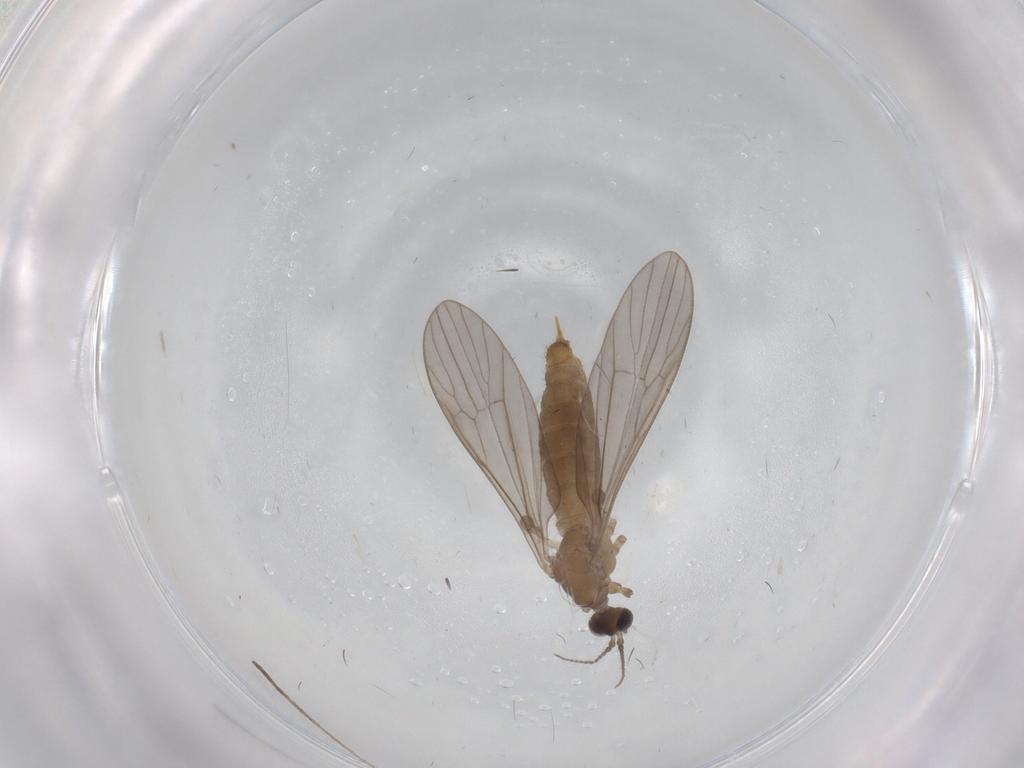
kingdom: Animalia
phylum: Arthropoda
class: Insecta
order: Diptera
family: Limoniidae
